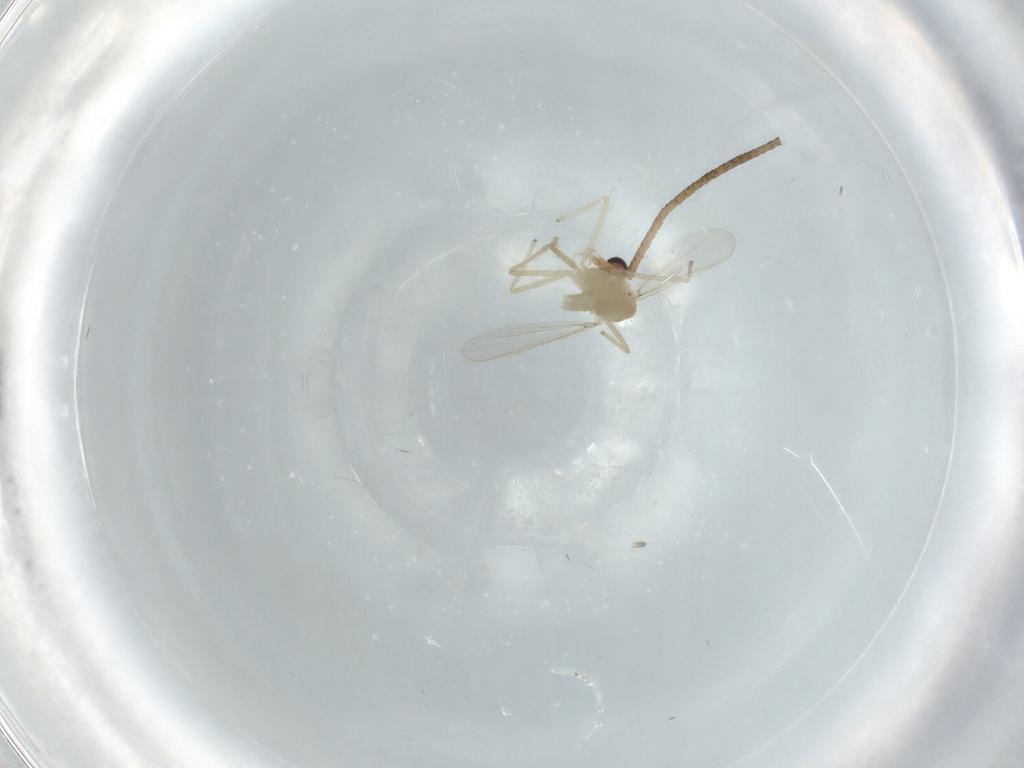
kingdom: Animalia
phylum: Arthropoda
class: Insecta
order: Diptera
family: Chironomidae
